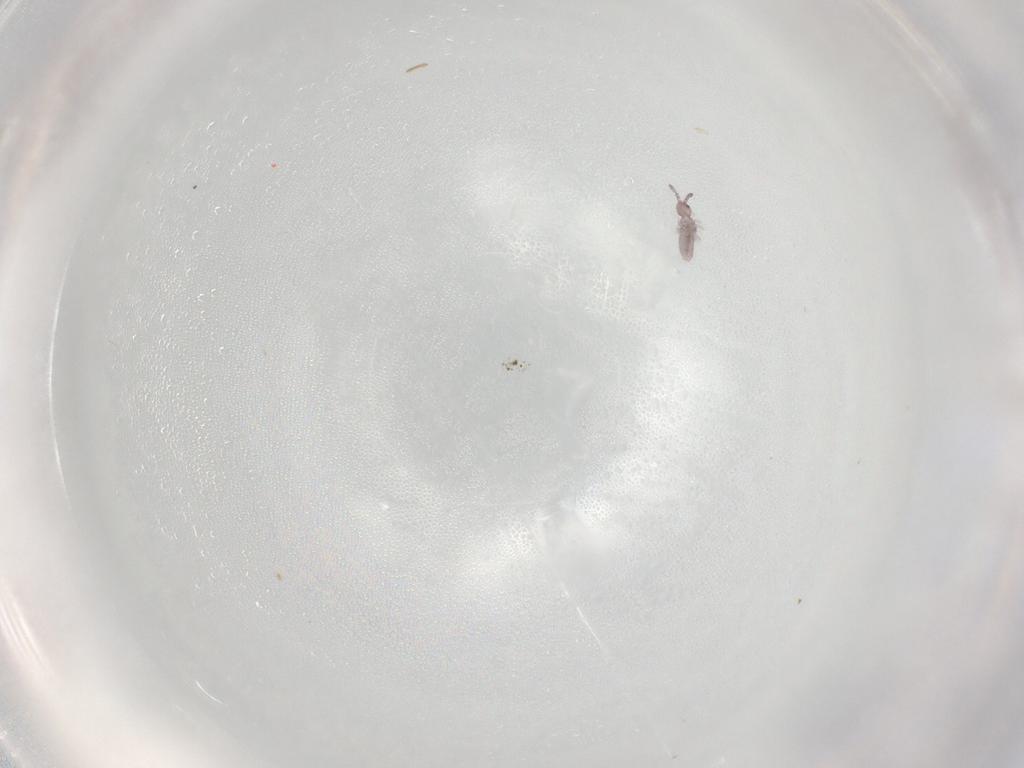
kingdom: Animalia
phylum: Arthropoda
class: Collembola
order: Entomobryomorpha
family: Entomobryidae
